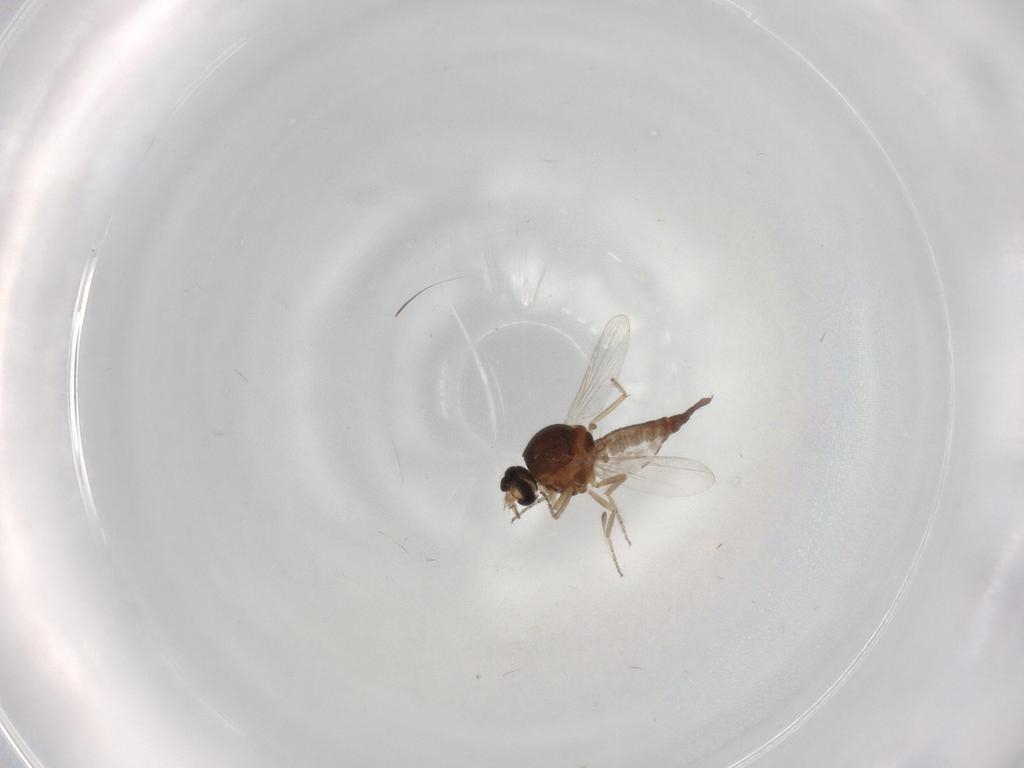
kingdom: Animalia
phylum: Arthropoda
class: Insecta
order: Diptera
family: Ceratopogonidae
